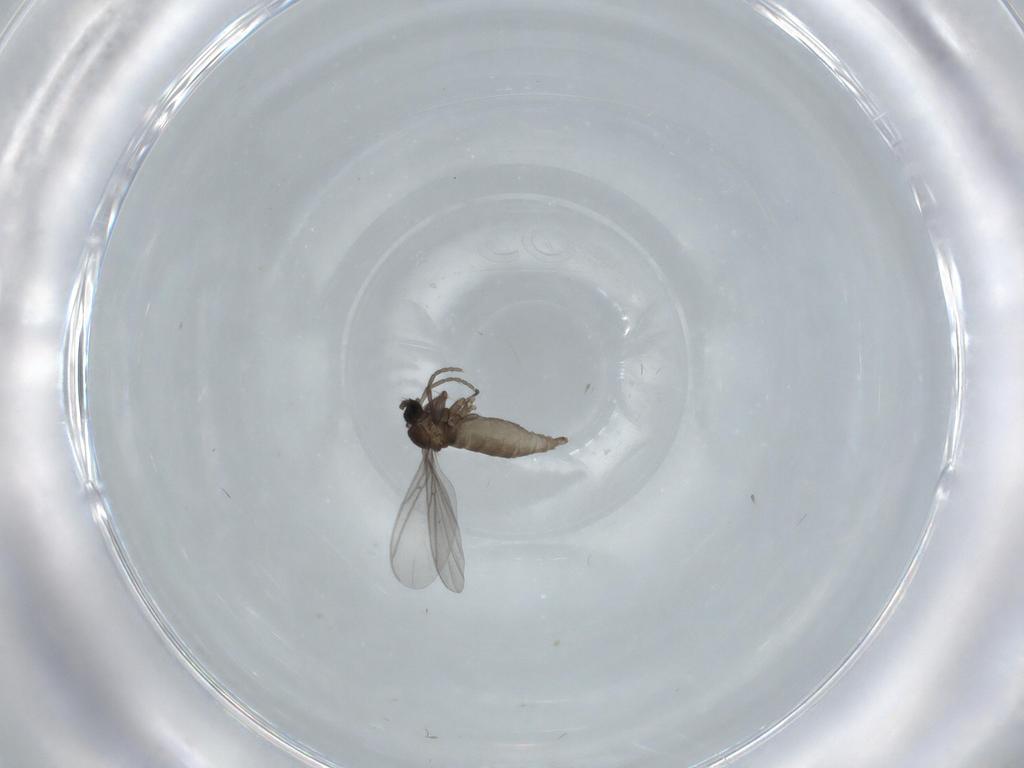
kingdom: Animalia
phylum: Arthropoda
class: Insecta
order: Diptera
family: Sciaridae
